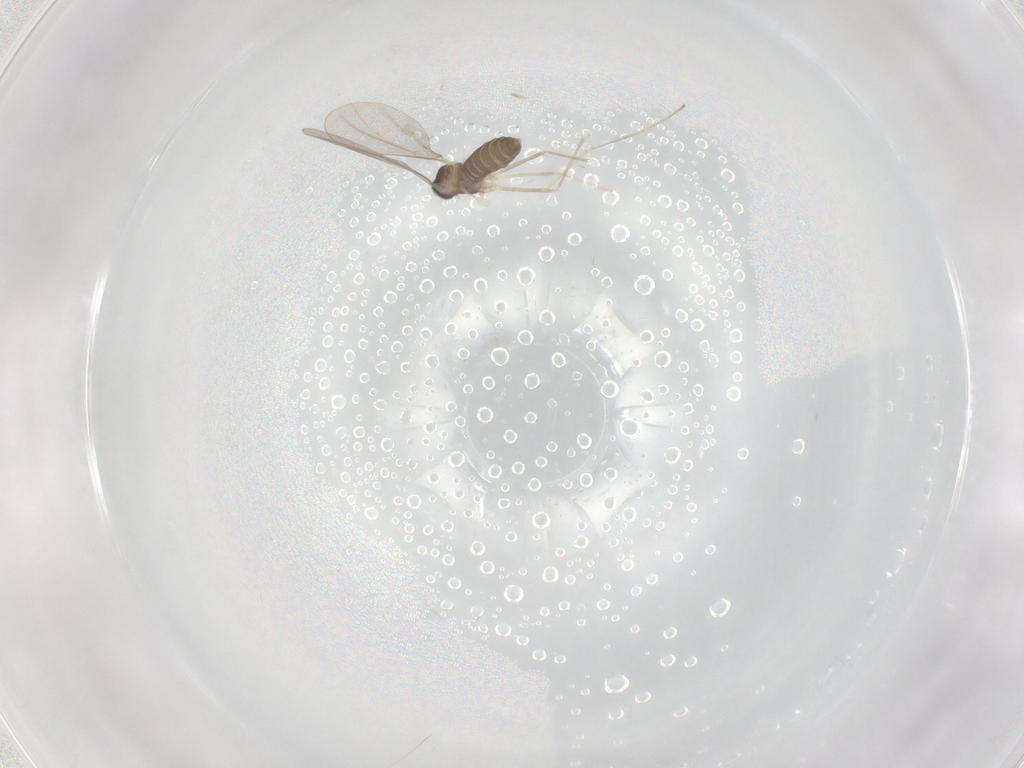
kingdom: Animalia
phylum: Arthropoda
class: Insecta
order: Diptera
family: Cecidomyiidae
